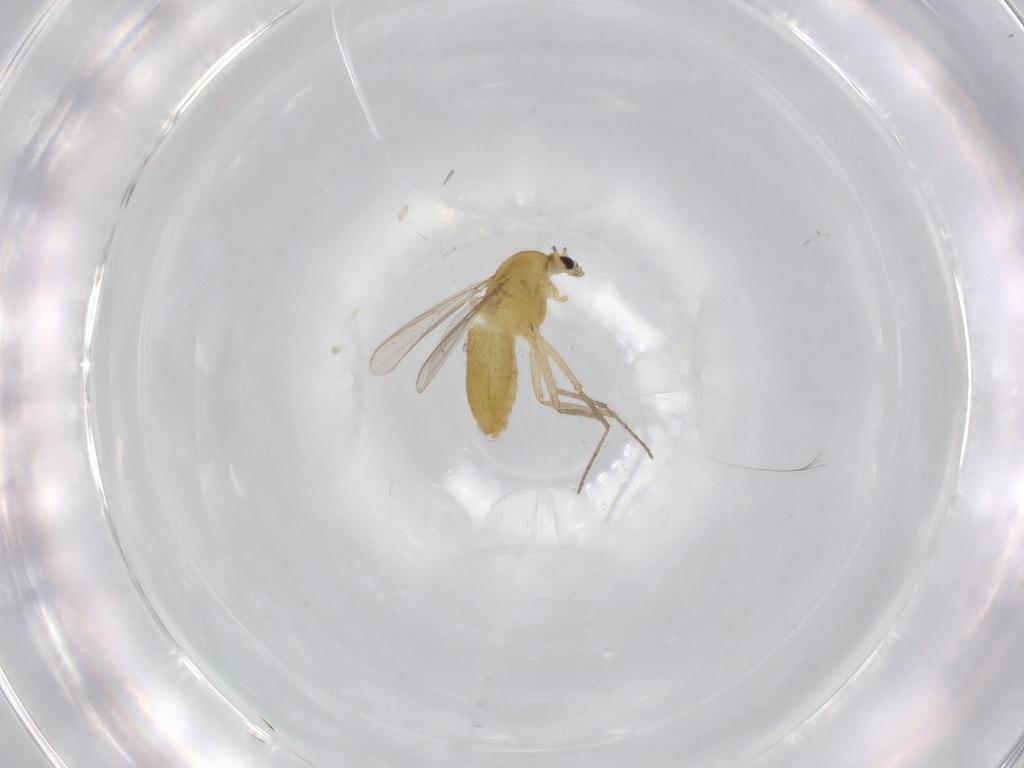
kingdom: Animalia
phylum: Arthropoda
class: Insecta
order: Diptera
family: Chironomidae
